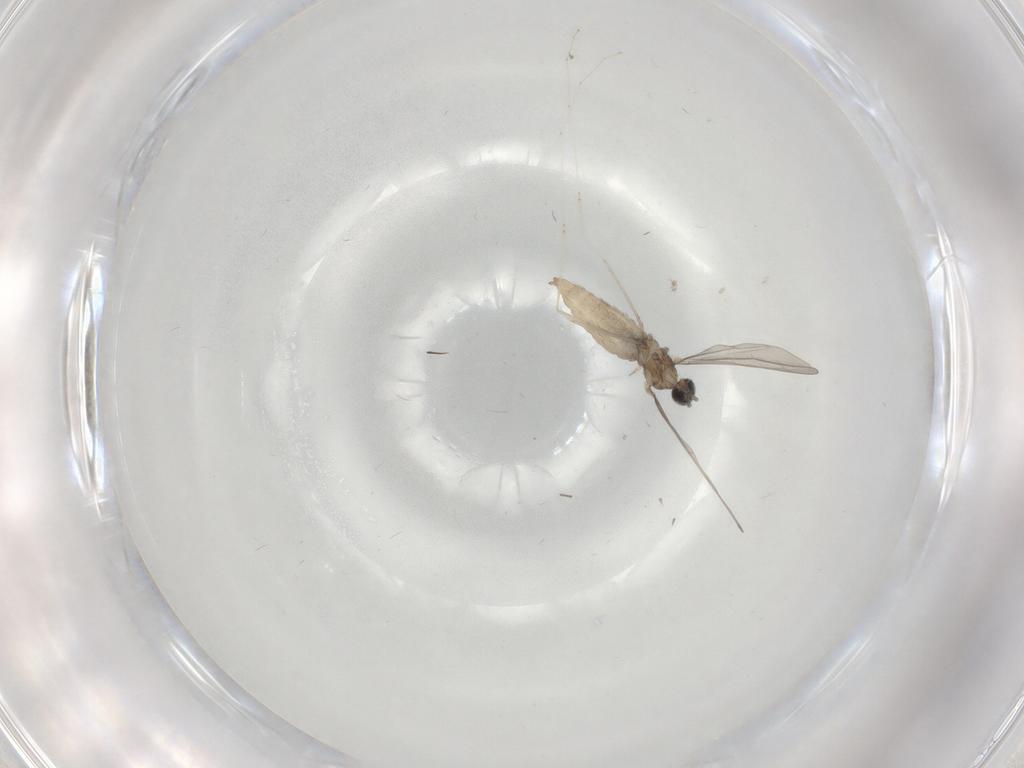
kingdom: Animalia
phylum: Arthropoda
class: Insecta
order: Diptera
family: Cecidomyiidae
